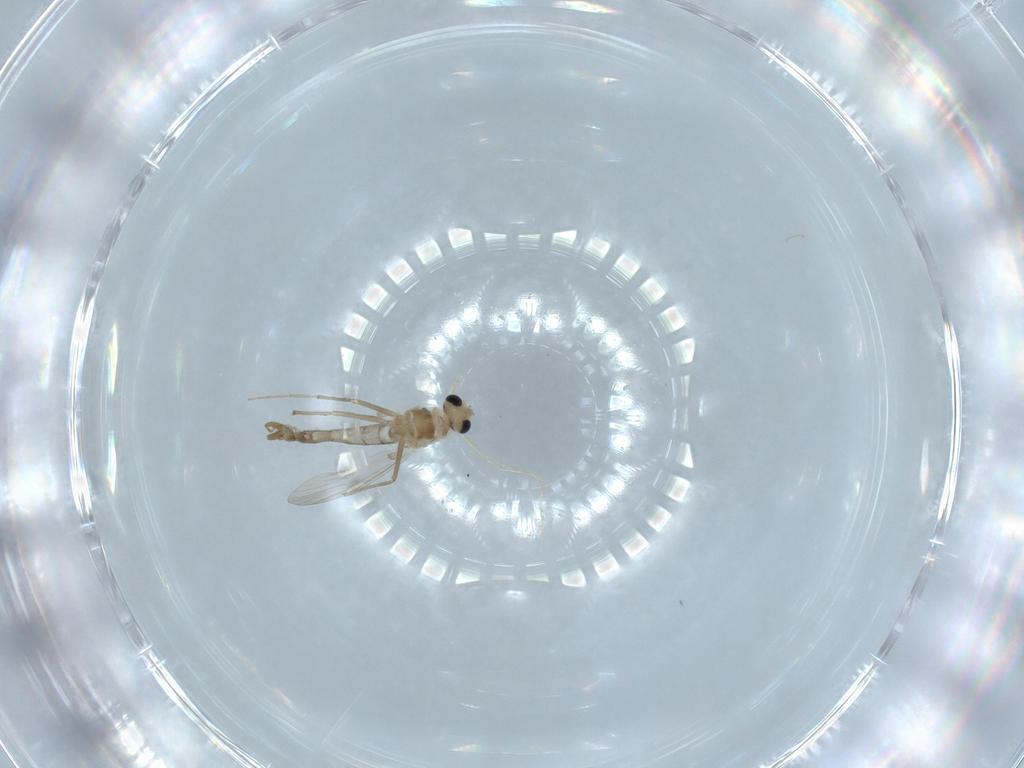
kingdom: Animalia
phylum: Arthropoda
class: Insecta
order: Diptera
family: Chironomidae
